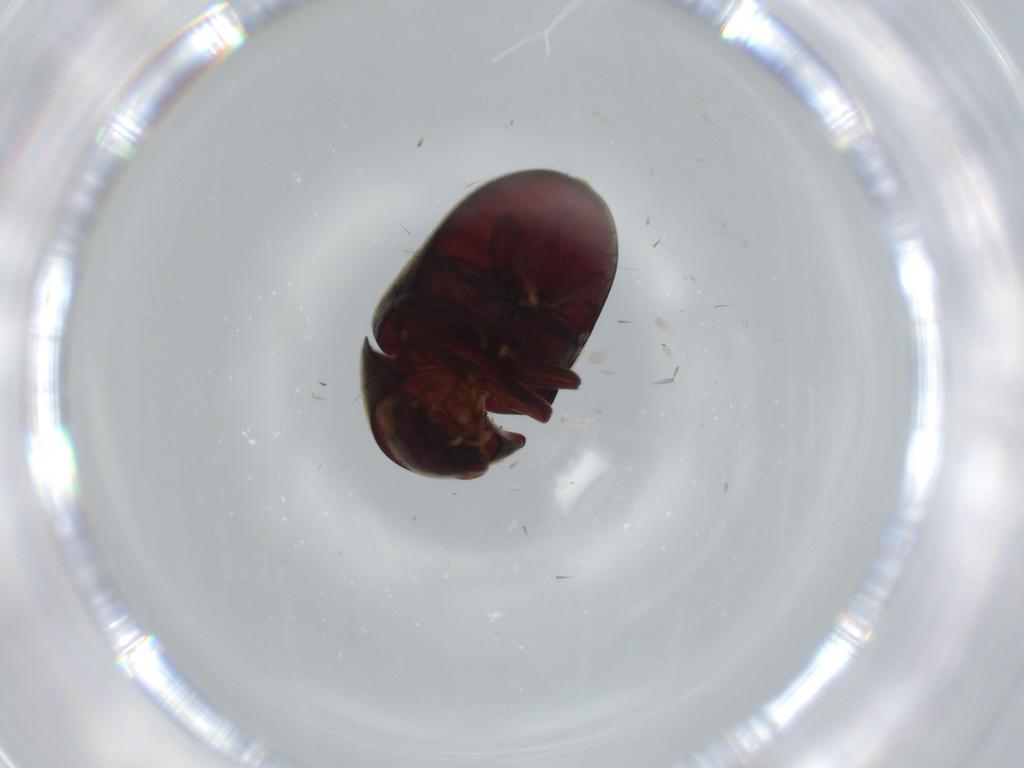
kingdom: Animalia
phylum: Arthropoda
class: Insecta
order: Coleoptera
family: Ptinidae
